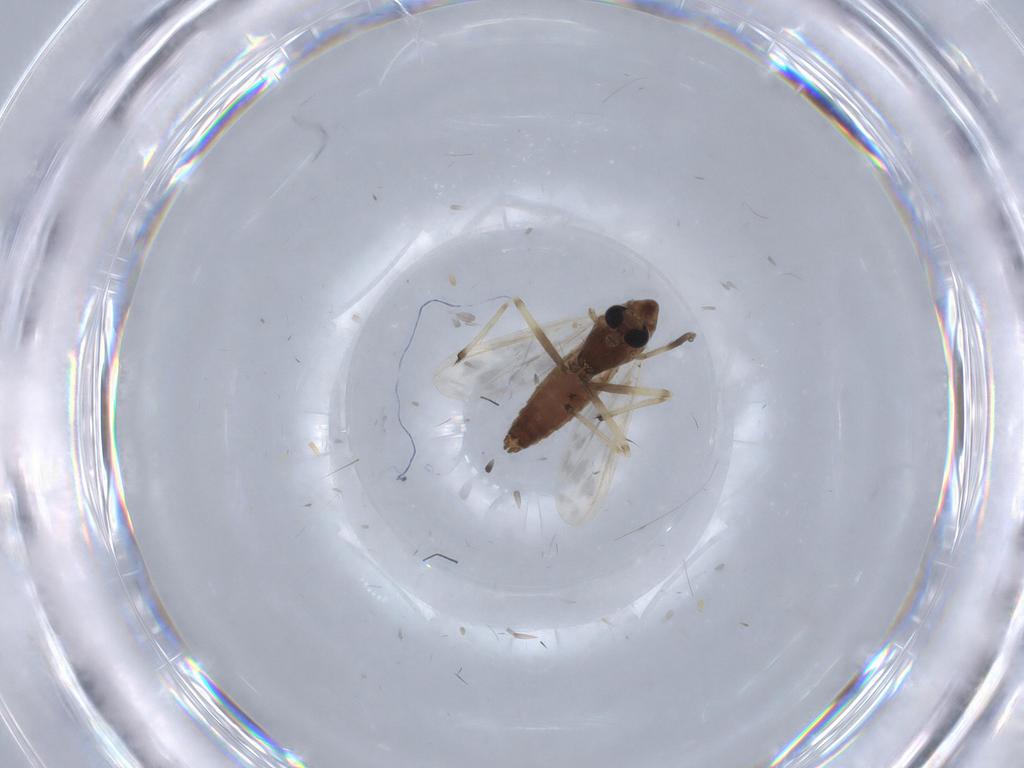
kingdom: Animalia
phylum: Arthropoda
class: Insecta
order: Diptera
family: Chironomidae
